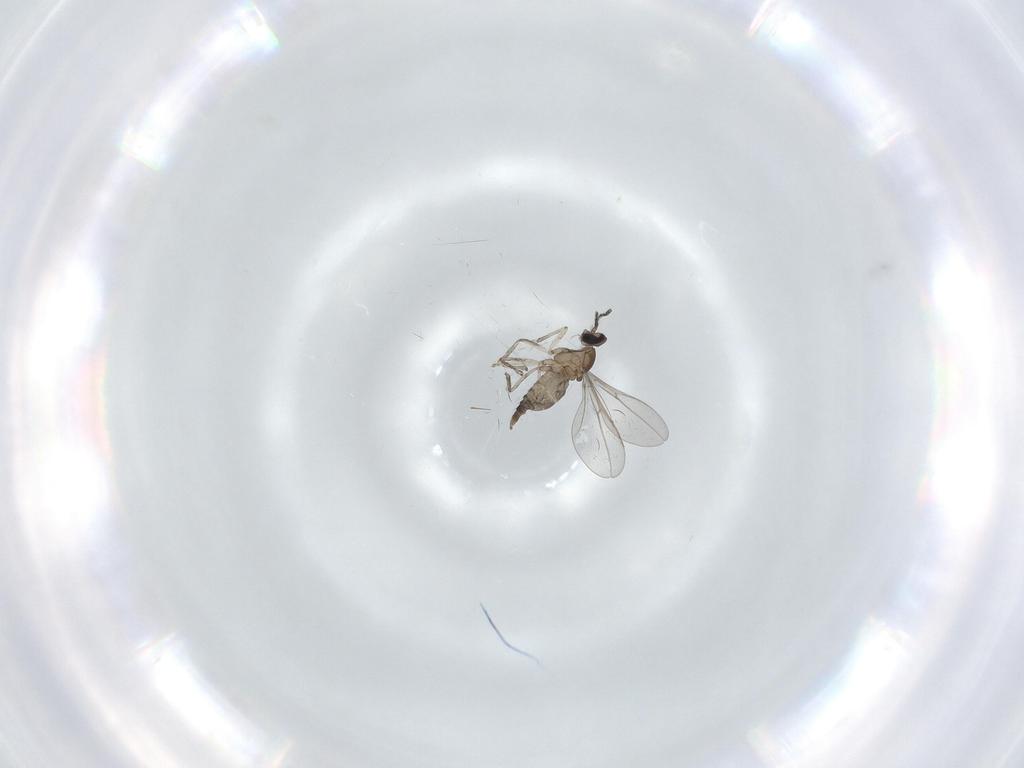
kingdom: Animalia
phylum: Arthropoda
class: Insecta
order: Diptera
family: Cecidomyiidae
